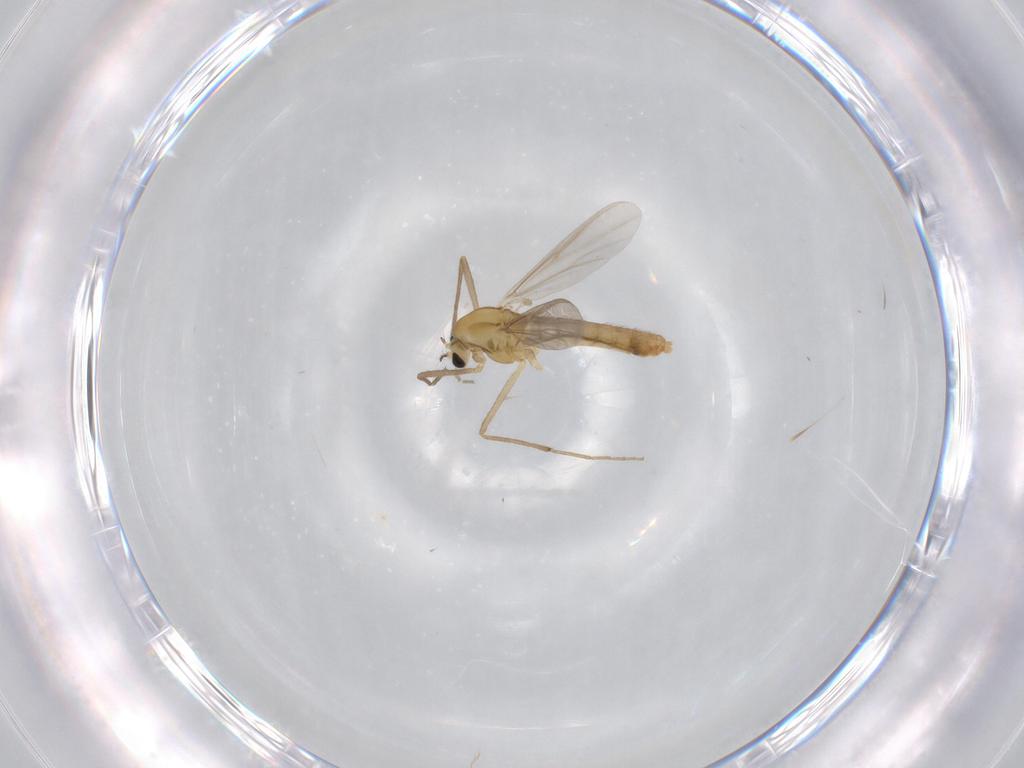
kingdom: Animalia
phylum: Arthropoda
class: Insecta
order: Diptera
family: Chironomidae
